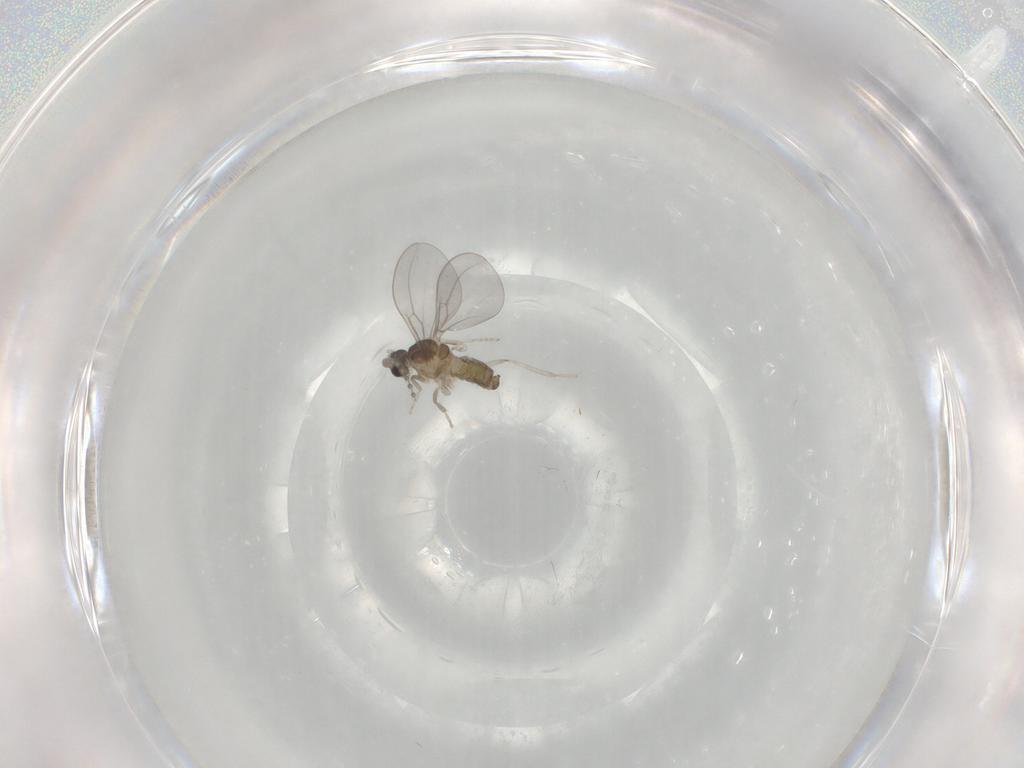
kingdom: Animalia
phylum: Arthropoda
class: Insecta
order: Diptera
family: Dolichopodidae
